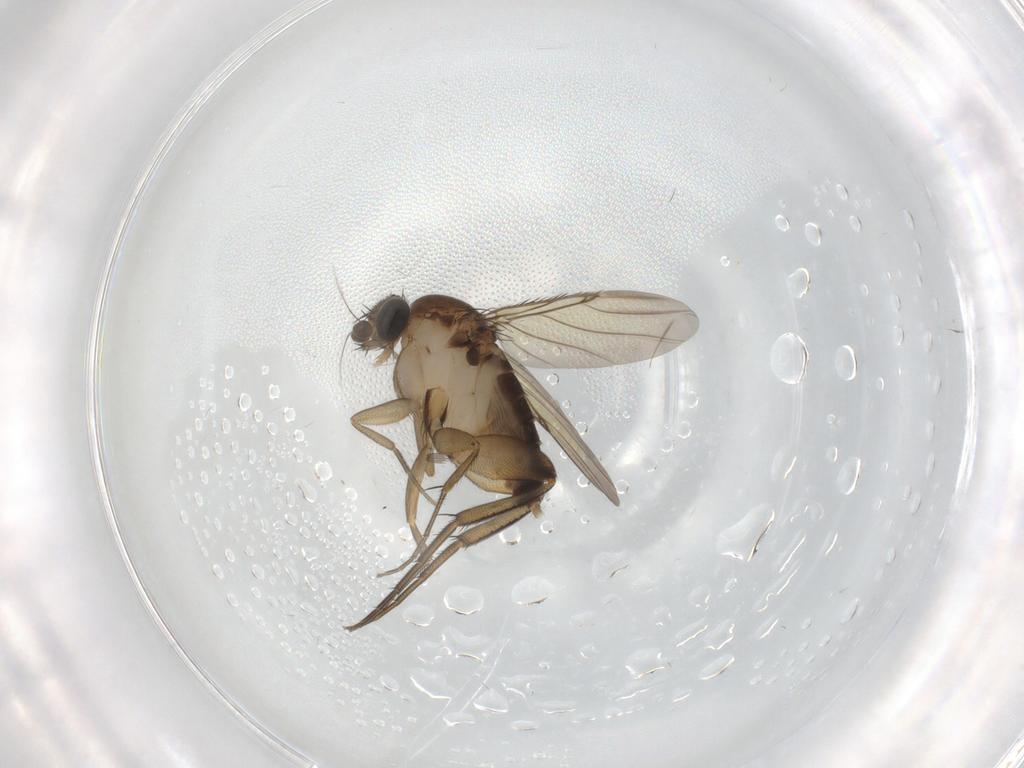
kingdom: Animalia
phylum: Arthropoda
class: Insecta
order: Diptera
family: Phoridae
